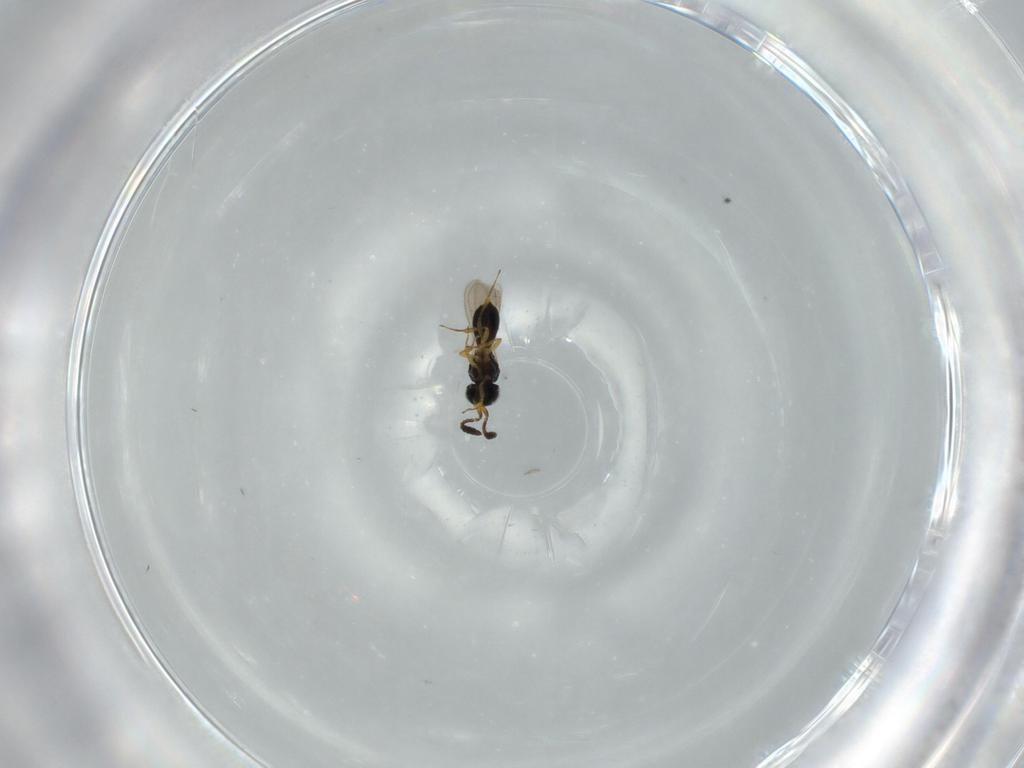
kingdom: Animalia
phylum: Arthropoda
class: Insecta
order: Hymenoptera
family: Scelionidae
